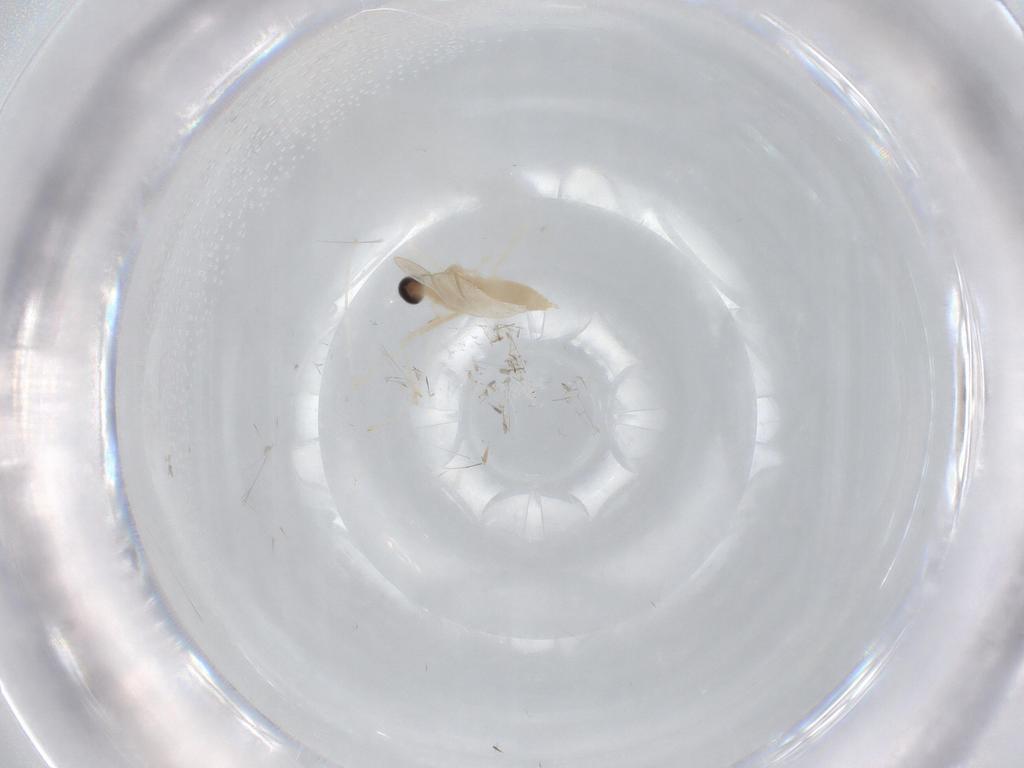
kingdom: Animalia
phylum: Arthropoda
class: Insecta
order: Diptera
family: Cecidomyiidae
